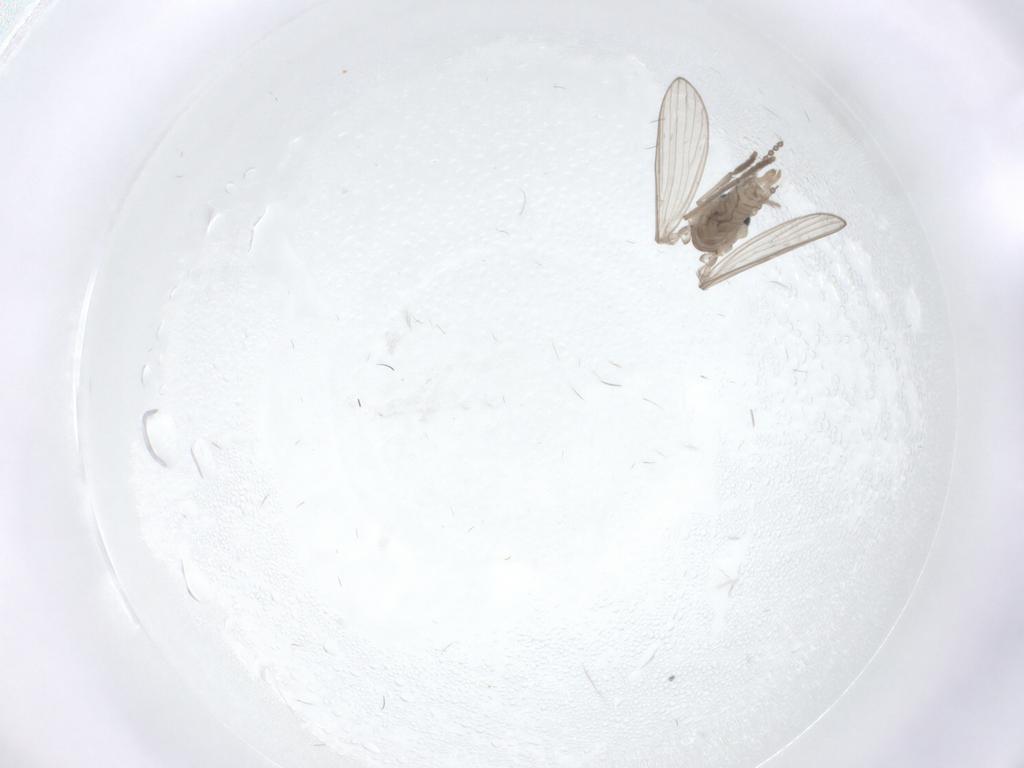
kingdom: Animalia
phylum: Arthropoda
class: Insecta
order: Diptera
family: Psychodidae
